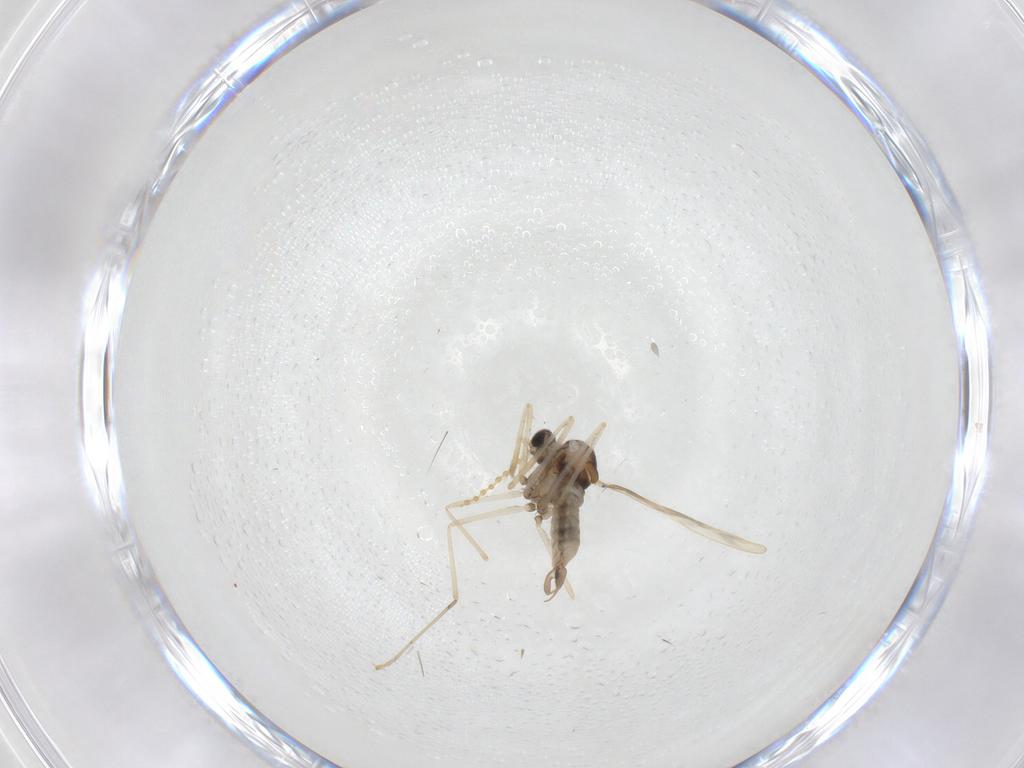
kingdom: Animalia
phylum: Arthropoda
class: Insecta
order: Diptera
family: Cecidomyiidae
